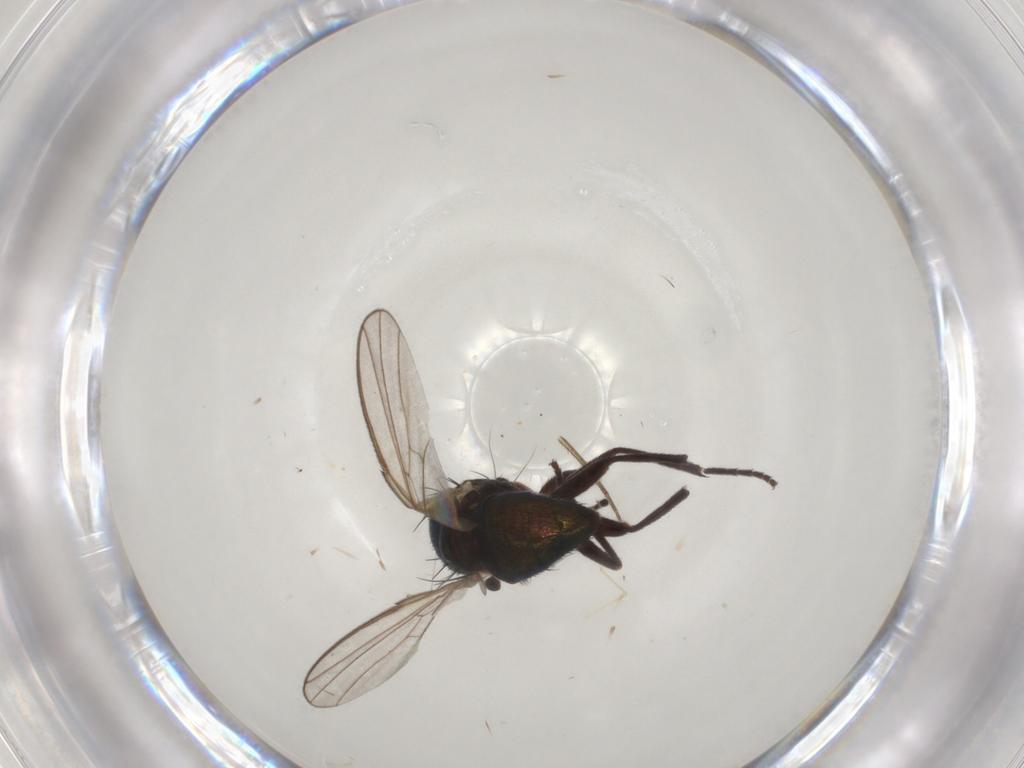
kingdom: Animalia
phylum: Arthropoda
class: Insecta
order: Diptera
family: Agromyzidae
